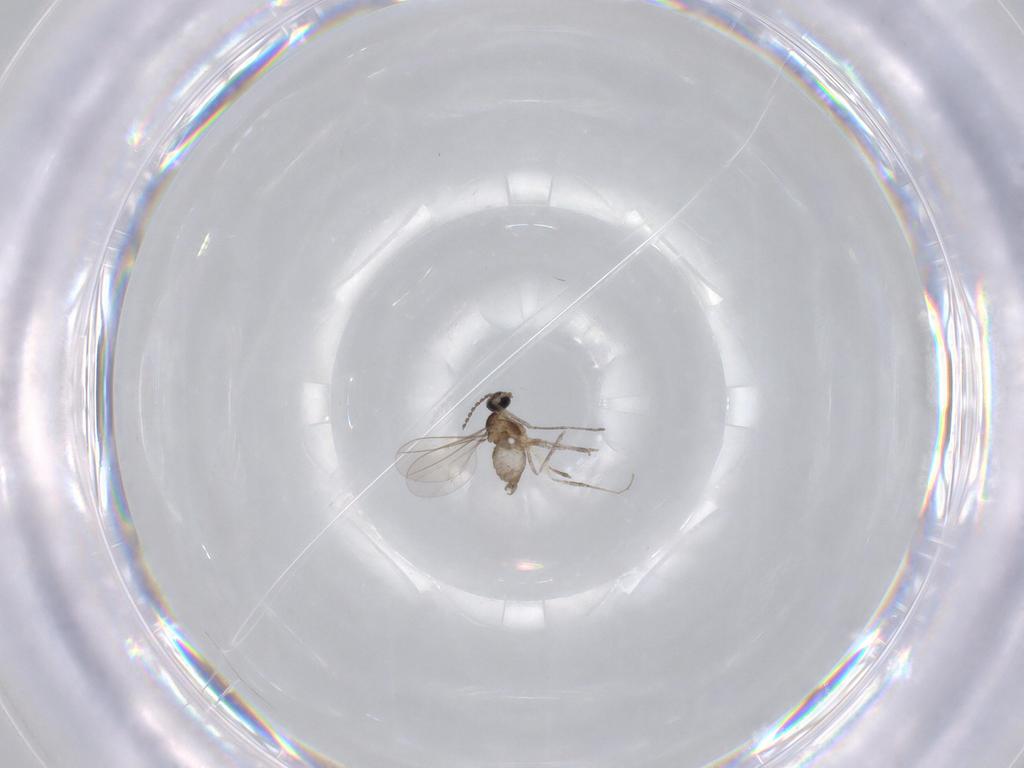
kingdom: Animalia
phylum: Arthropoda
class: Insecta
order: Diptera
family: Cecidomyiidae
